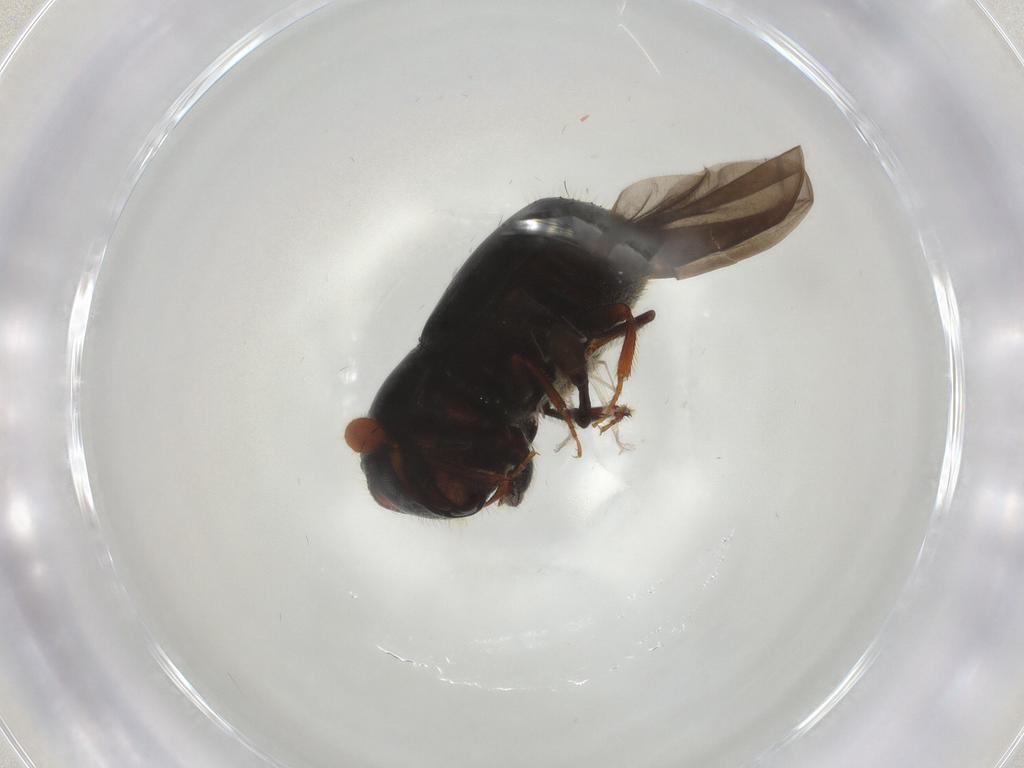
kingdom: Animalia
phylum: Arthropoda
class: Insecta
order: Coleoptera
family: Curculionidae
